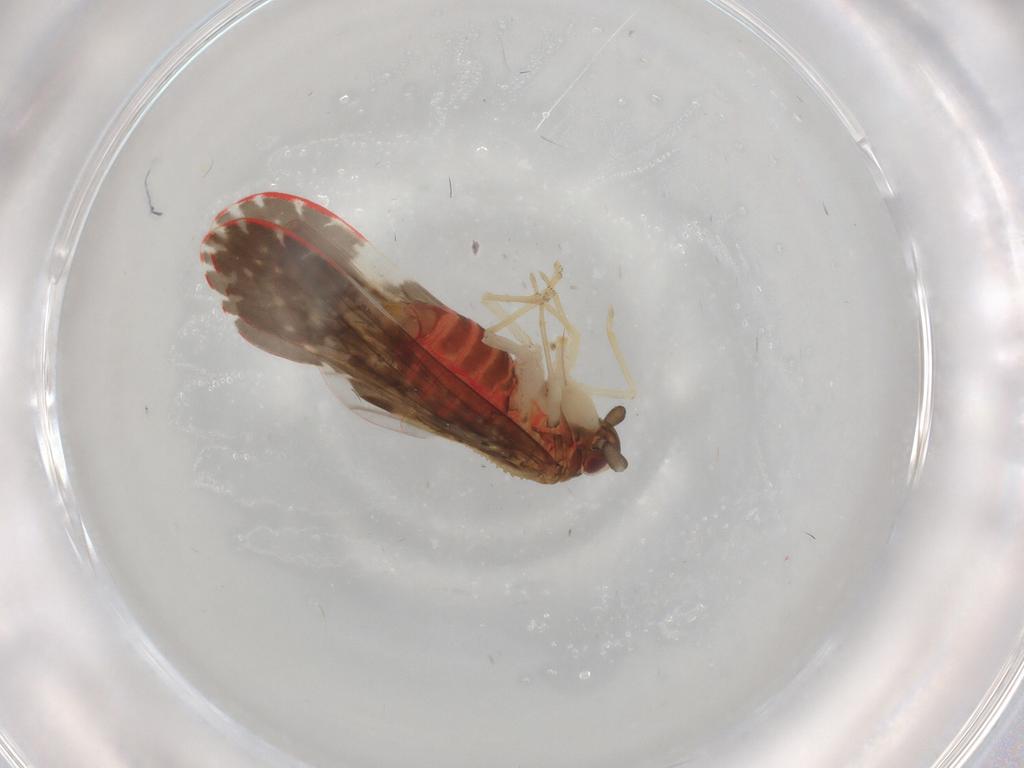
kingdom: Animalia
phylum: Arthropoda
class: Insecta
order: Hemiptera
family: Derbidae
